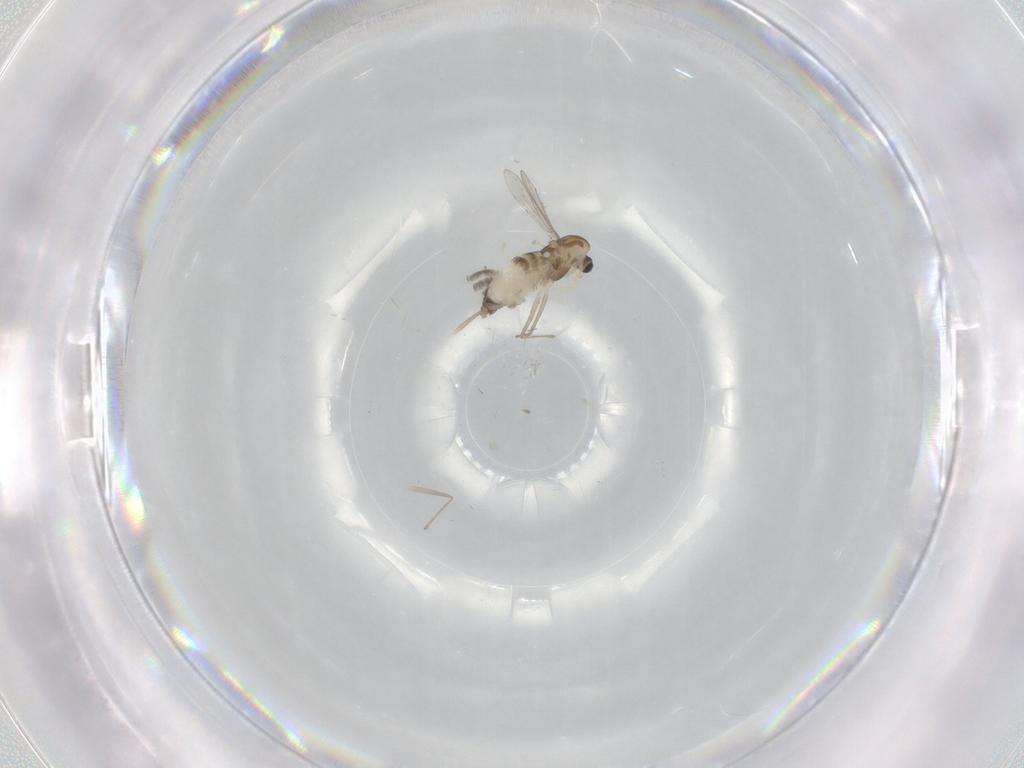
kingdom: Animalia
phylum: Arthropoda
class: Insecta
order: Diptera
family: Chironomidae
